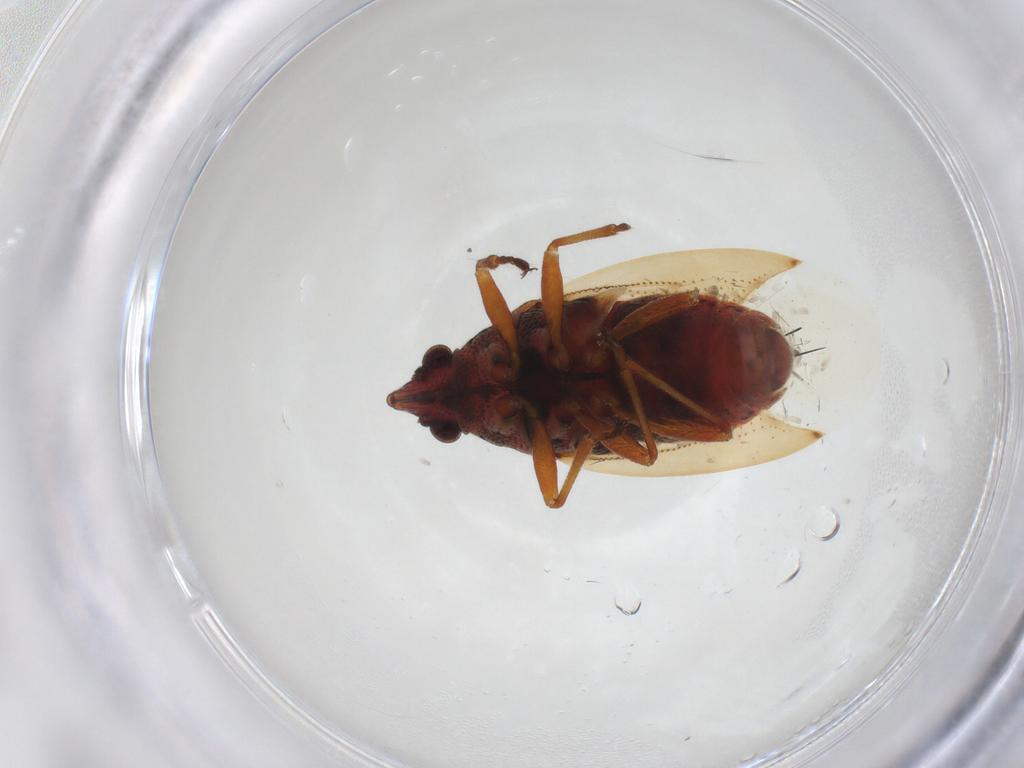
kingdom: Animalia
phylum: Arthropoda
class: Insecta
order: Hemiptera
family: Lygaeidae
